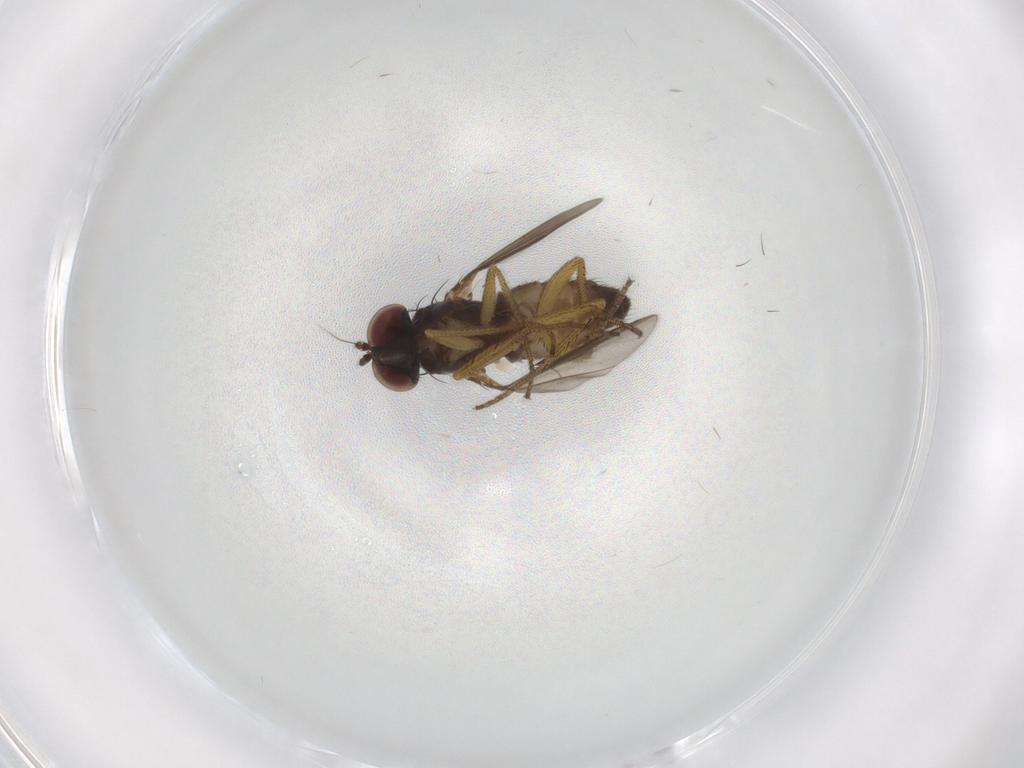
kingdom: Animalia
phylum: Arthropoda
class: Insecta
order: Diptera
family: Dolichopodidae
